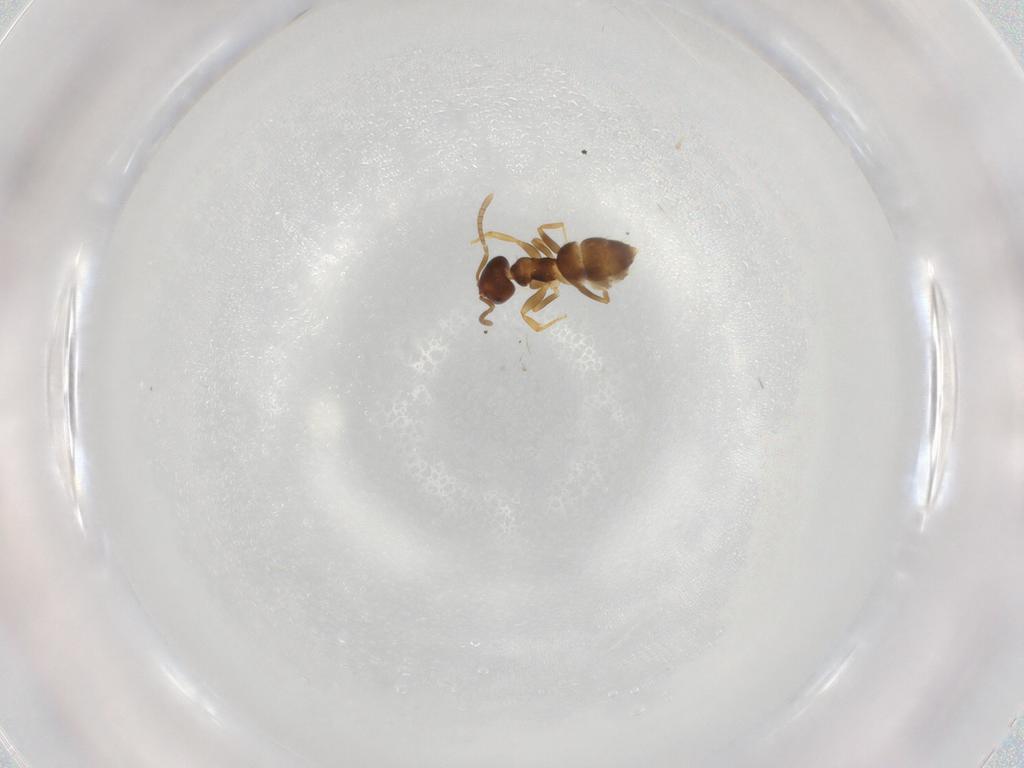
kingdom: Animalia
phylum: Arthropoda
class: Insecta
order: Hymenoptera
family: Formicidae
